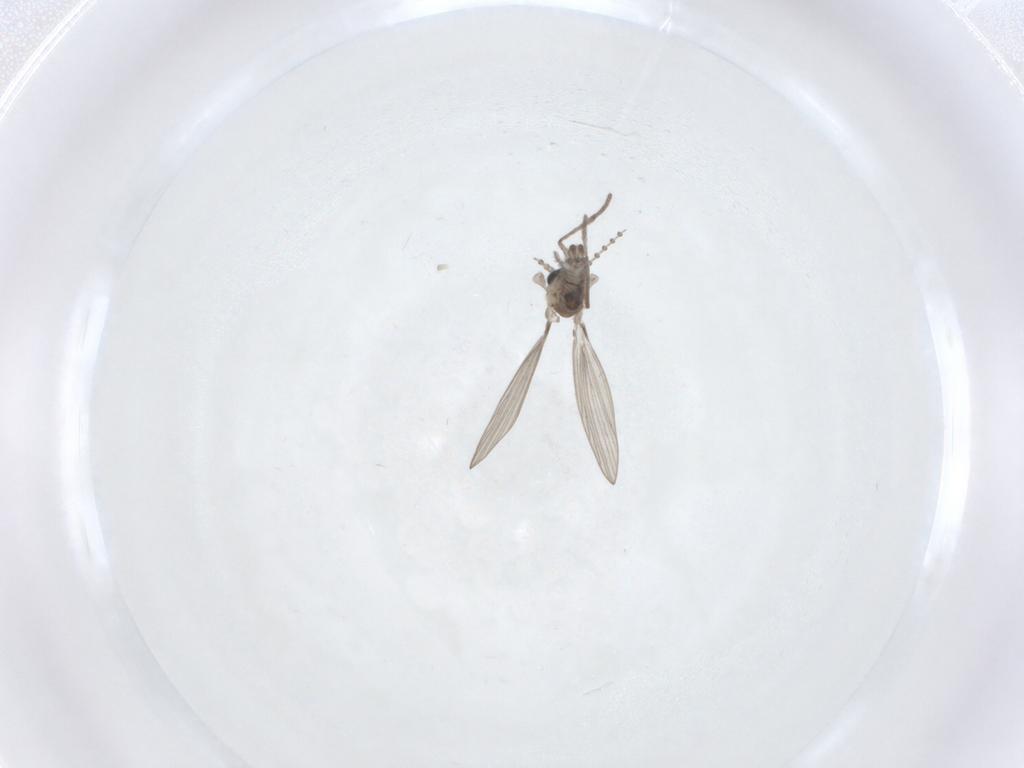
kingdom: Animalia
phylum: Arthropoda
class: Insecta
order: Diptera
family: Psychodidae
